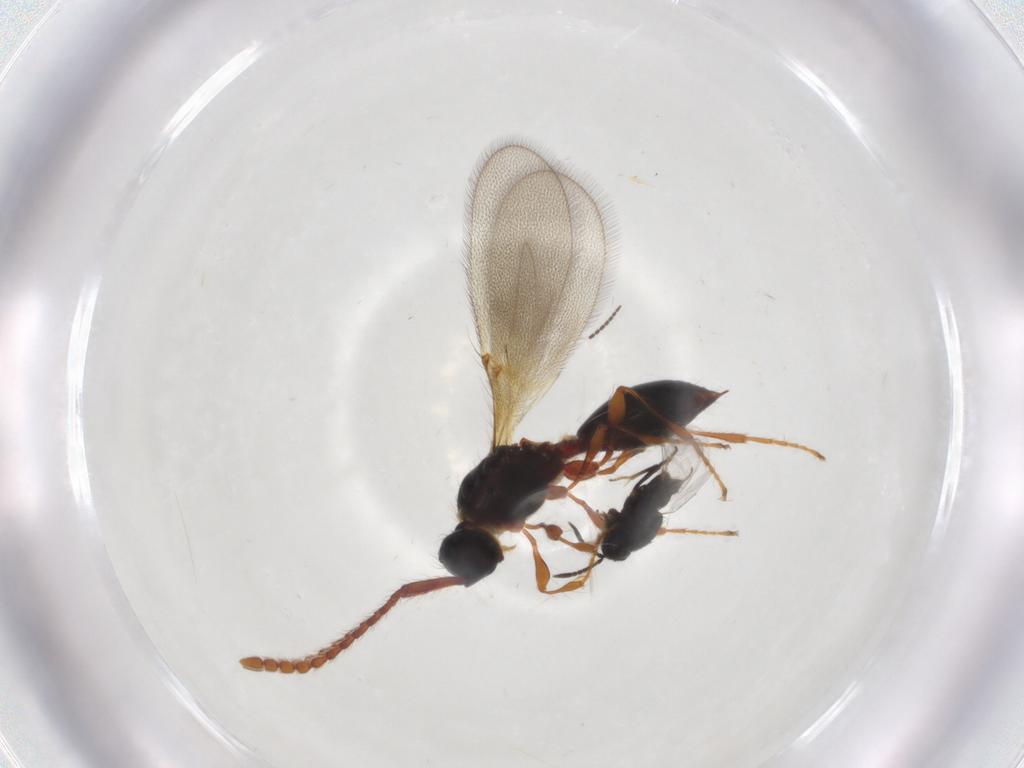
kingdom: Animalia
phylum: Arthropoda
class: Insecta
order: Diptera
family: Sciaridae
